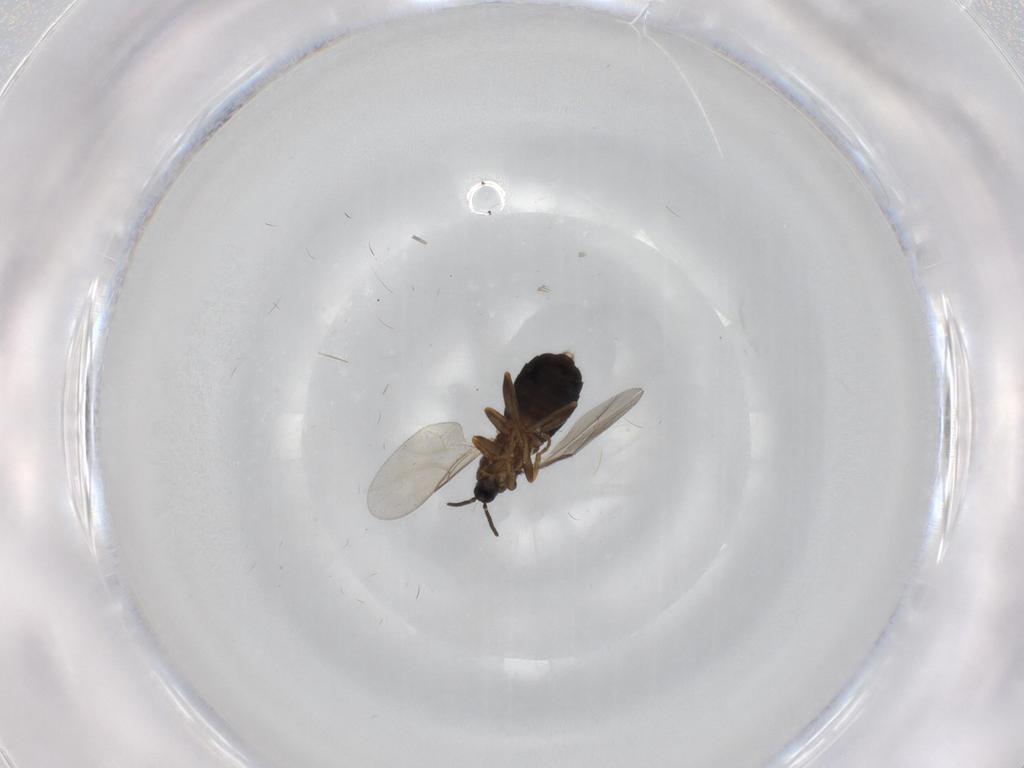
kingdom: Animalia
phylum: Arthropoda
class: Insecta
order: Diptera
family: Scatopsidae
